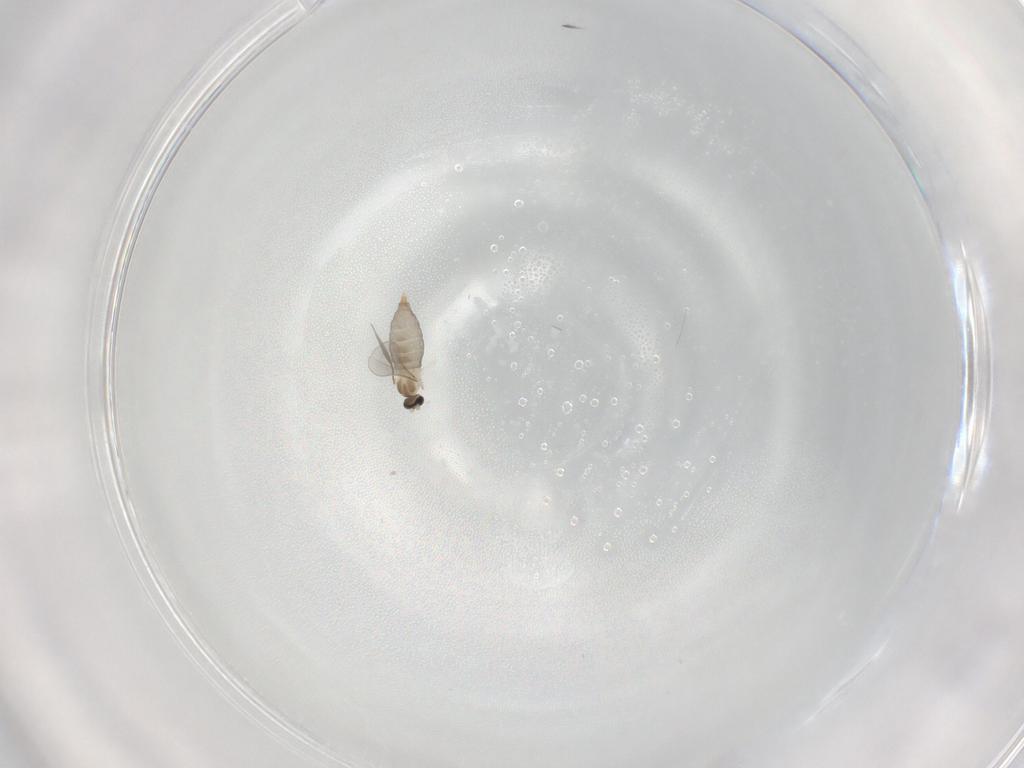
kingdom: Animalia
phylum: Arthropoda
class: Insecta
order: Diptera
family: Cecidomyiidae
